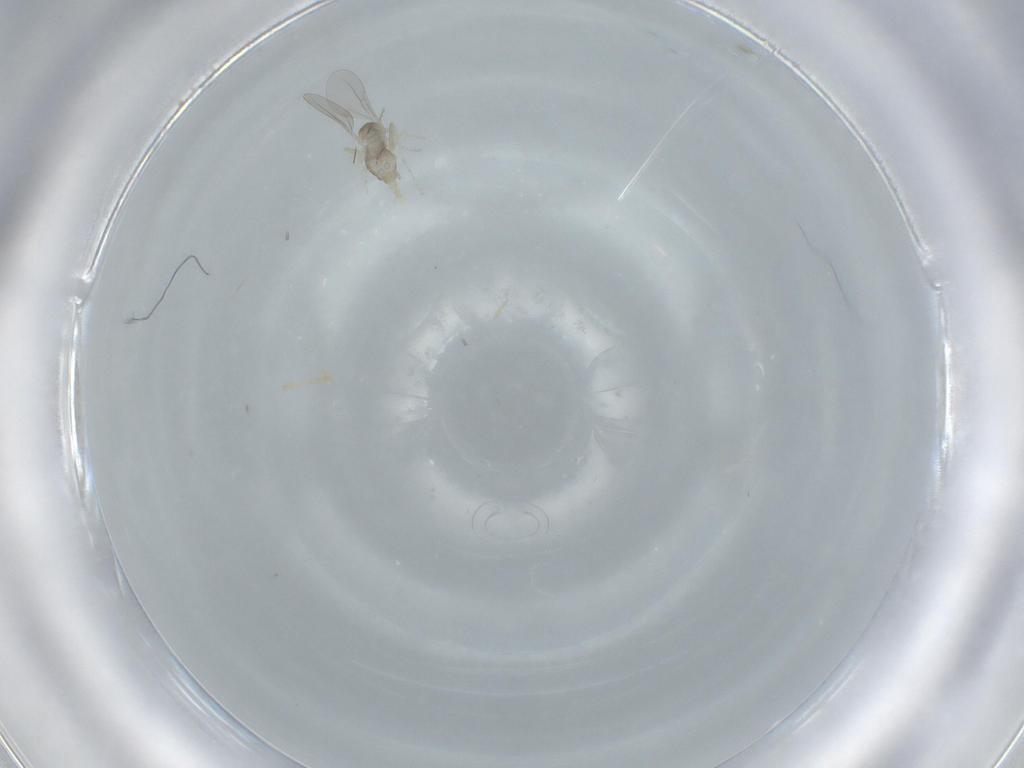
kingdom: Animalia
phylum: Arthropoda
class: Insecta
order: Diptera
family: Cecidomyiidae
